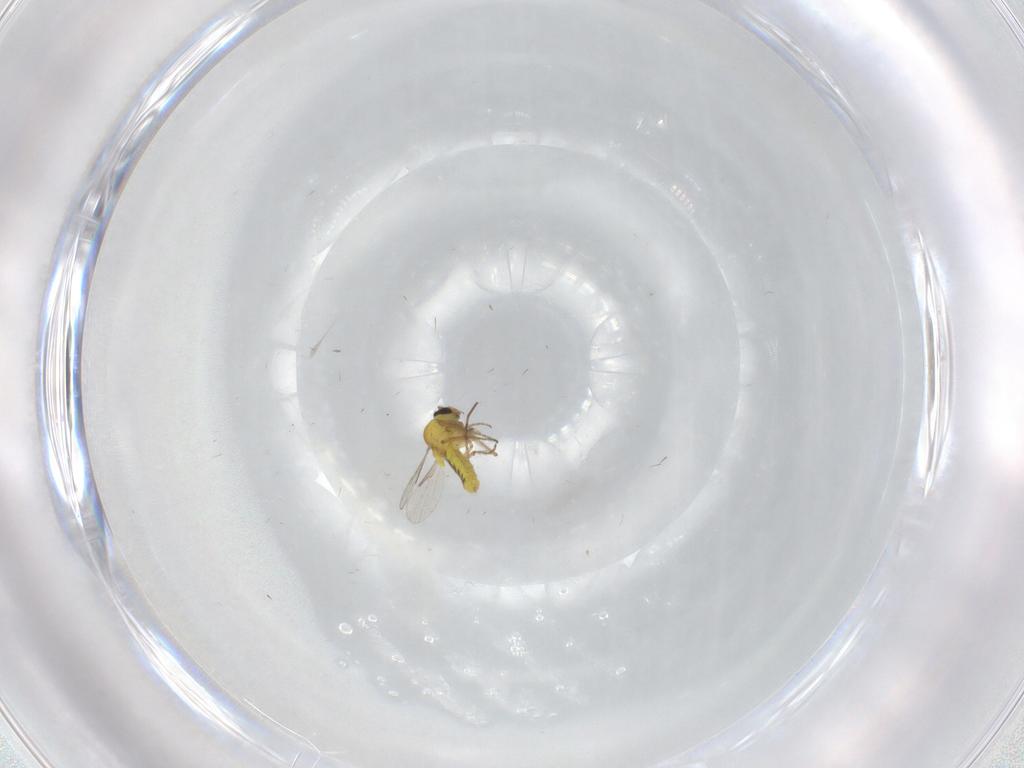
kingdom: Animalia
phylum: Arthropoda
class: Insecta
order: Diptera
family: Chironomidae
